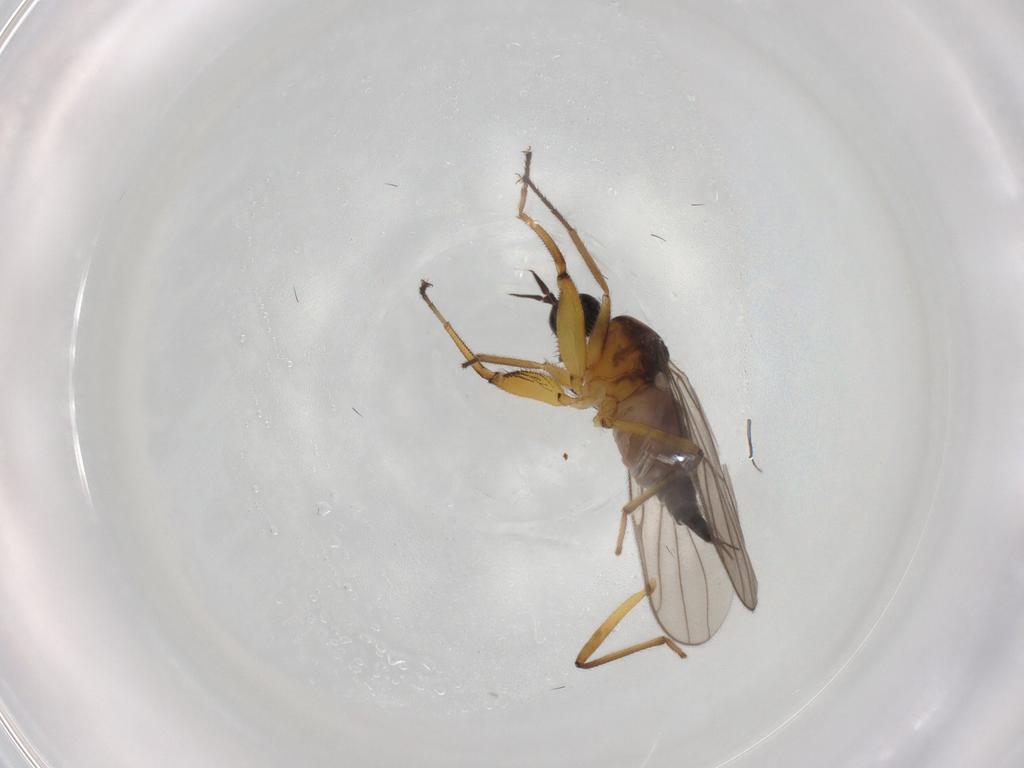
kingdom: Animalia
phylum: Arthropoda
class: Insecta
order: Diptera
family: Hybotidae
